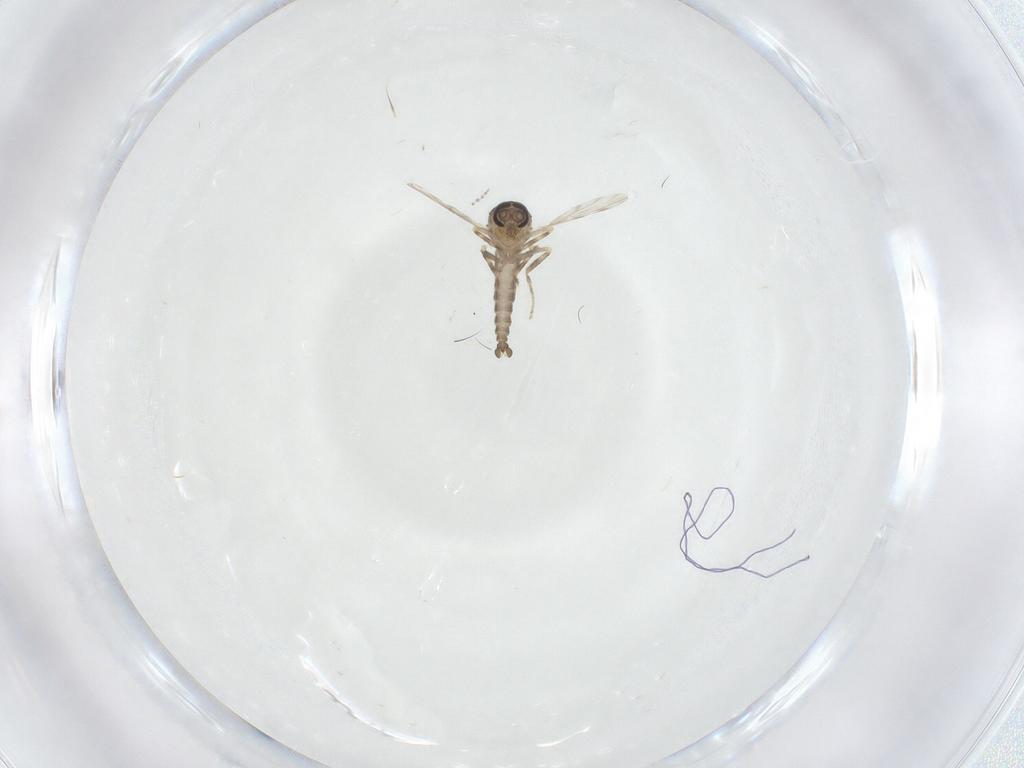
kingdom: Animalia
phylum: Arthropoda
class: Insecta
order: Diptera
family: Ceratopogonidae
